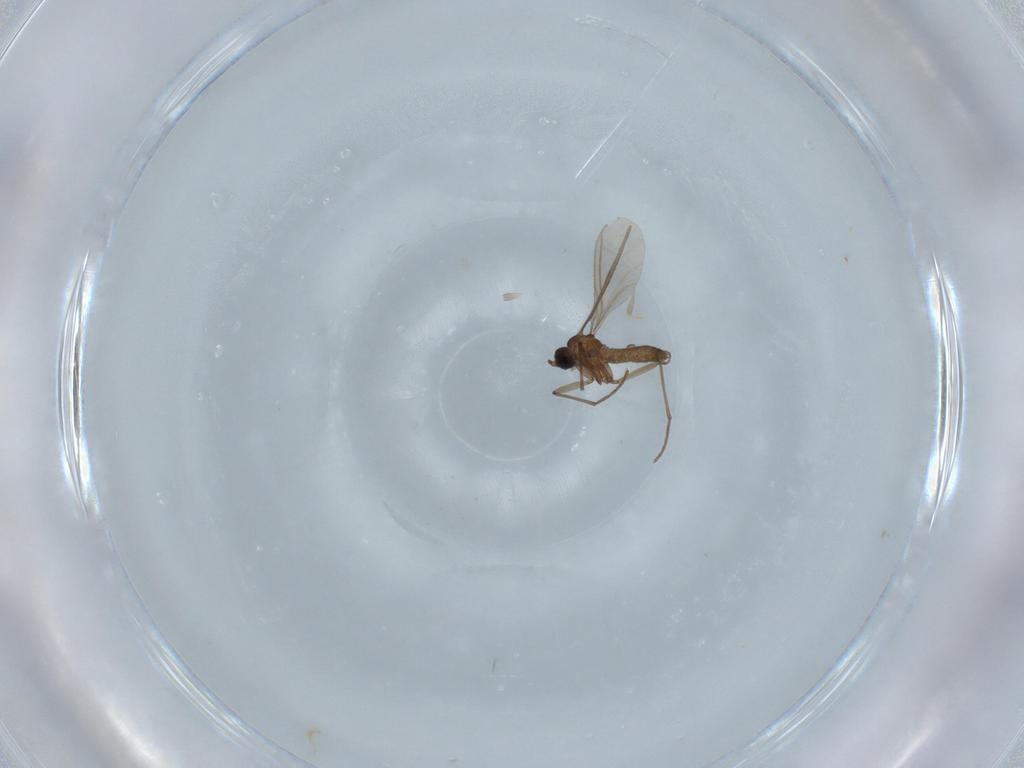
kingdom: Animalia
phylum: Arthropoda
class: Insecta
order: Diptera
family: Sciaridae
